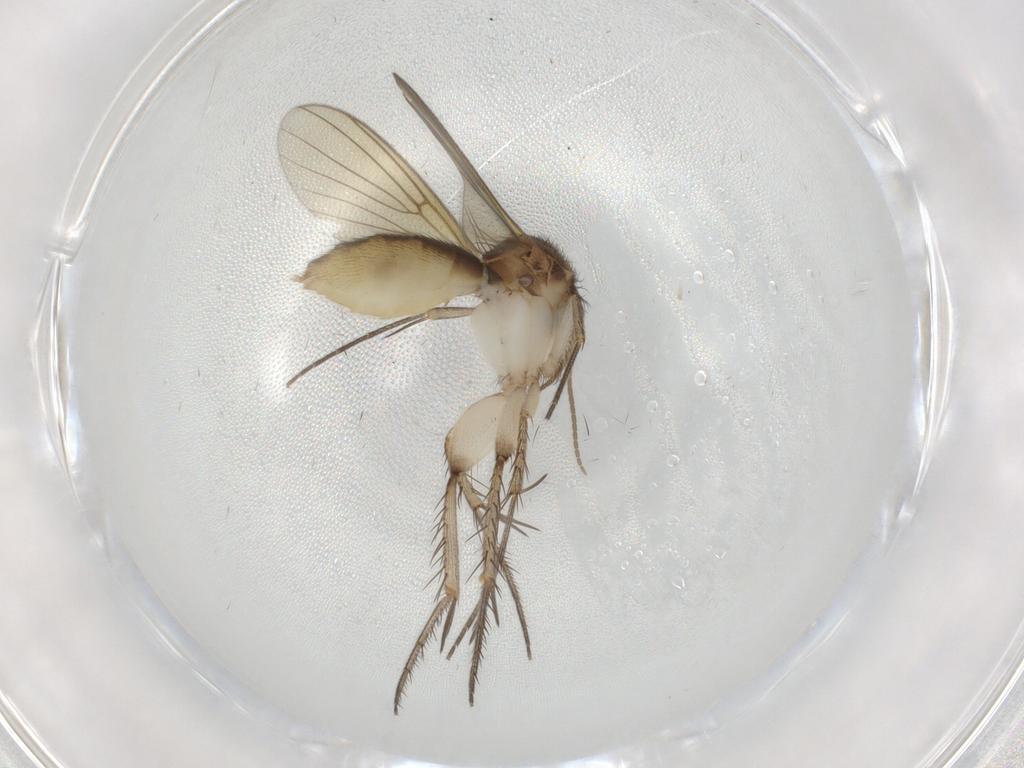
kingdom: Animalia
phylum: Arthropoda
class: Insecta
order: Diptera
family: Mycetophilidae
